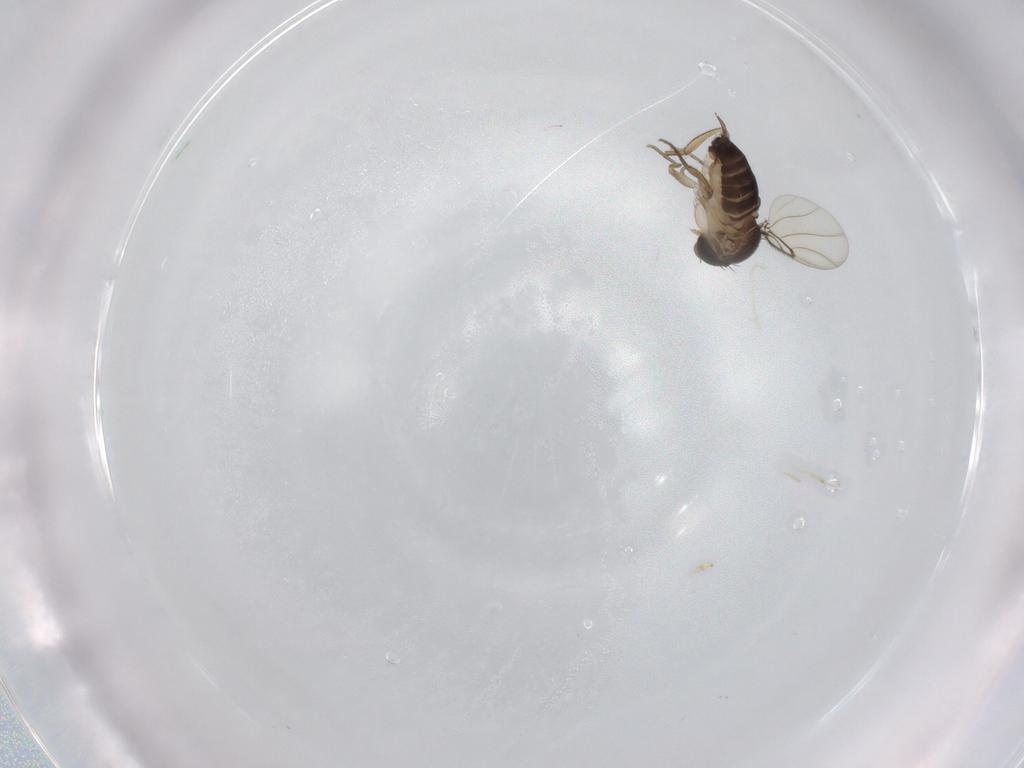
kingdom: Animalia
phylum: Arthropoda
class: Insecta
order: Diptera
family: Phoridae
